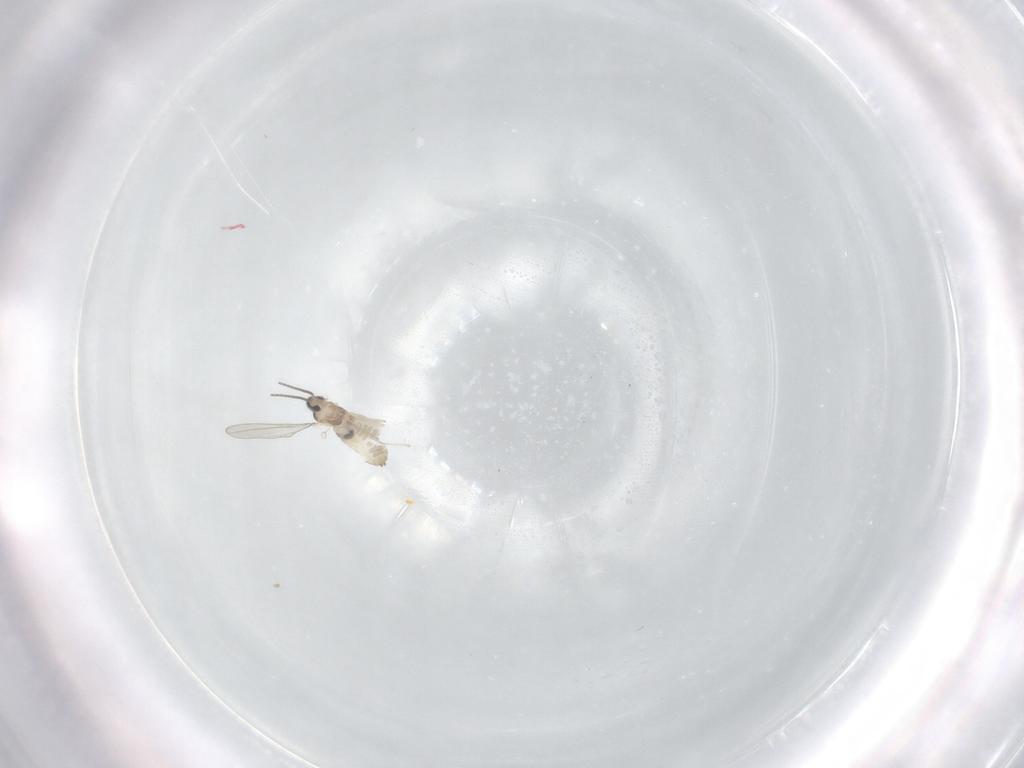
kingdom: Animalia
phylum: Arthropoda
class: Insecta
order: Diptera
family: Cecidomyiidae
